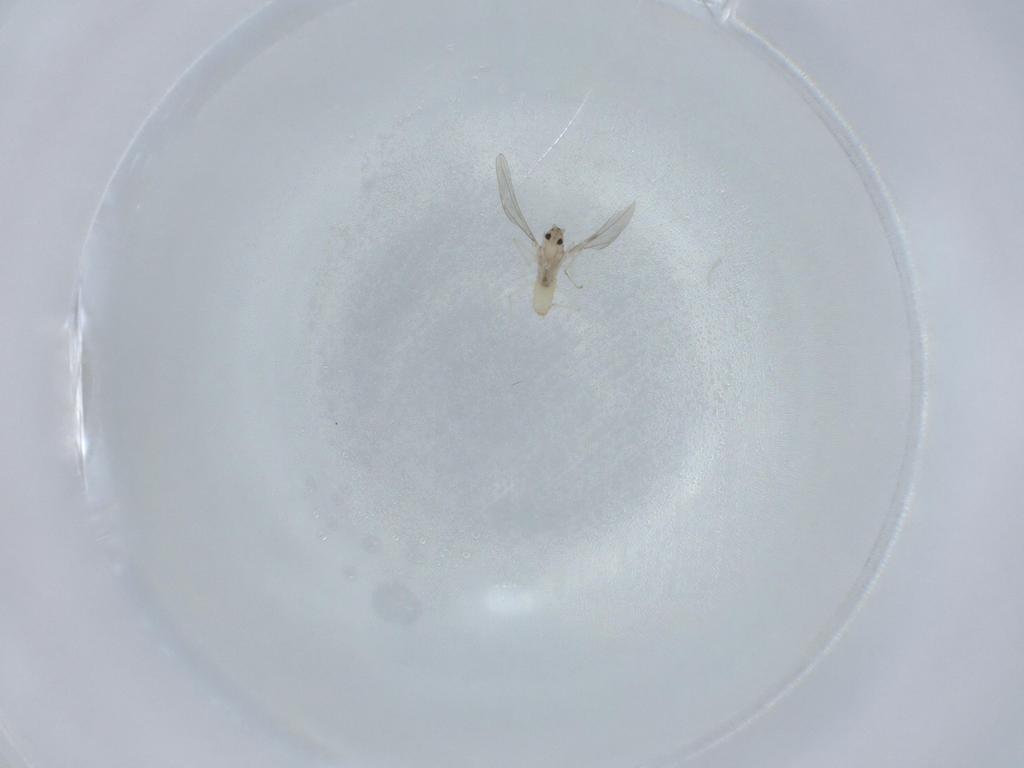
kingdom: Animalia
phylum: Arthropoda
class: Insecta
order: Diptera
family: Cecidomyiidae
